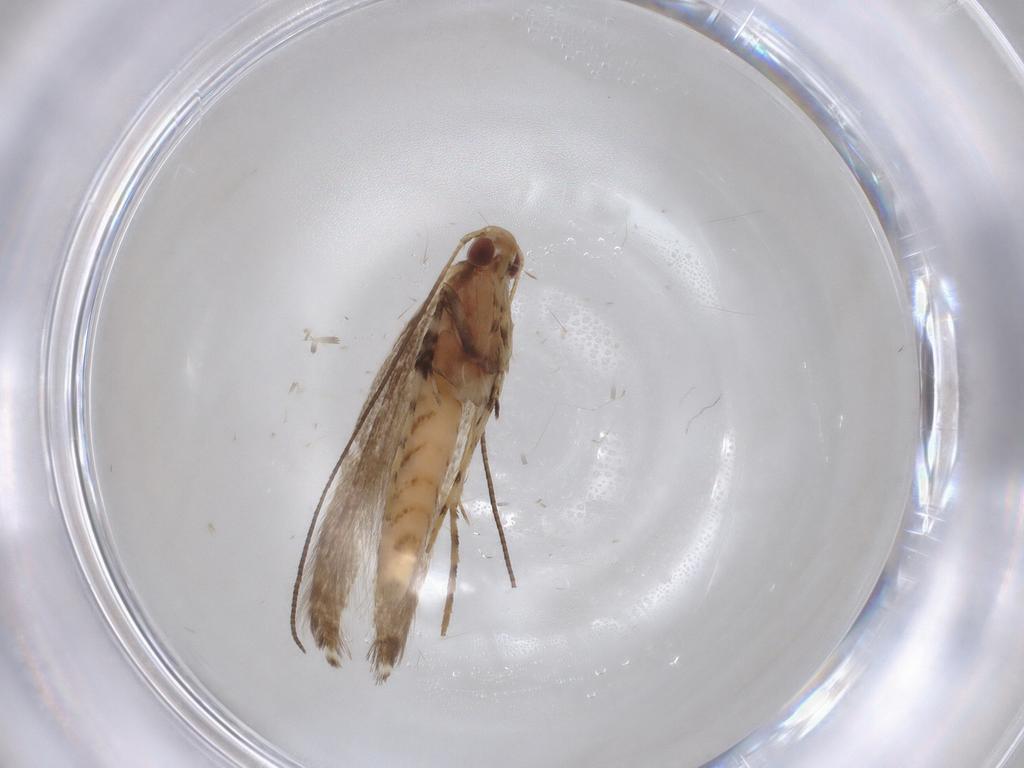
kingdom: Animalia
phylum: Arthropoda
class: Insecta
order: Lepidoptera
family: Gracillariidae
